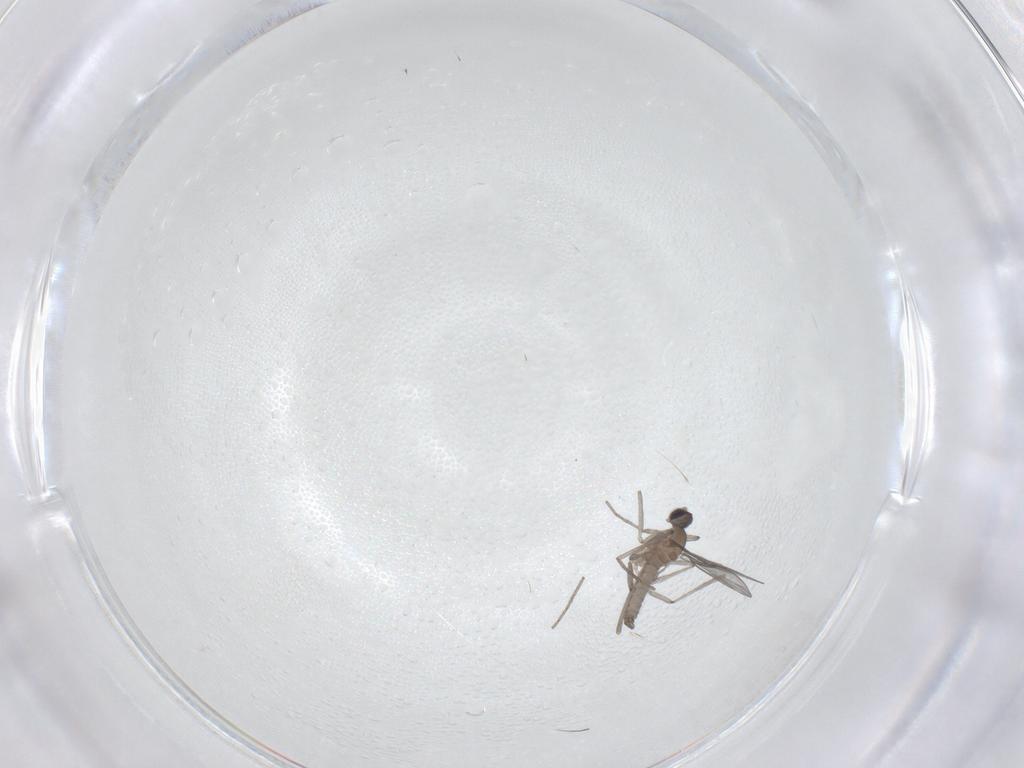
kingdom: Animalia
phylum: Arthropoda
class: Insecta
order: Diptera
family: Cecidomyiidae
